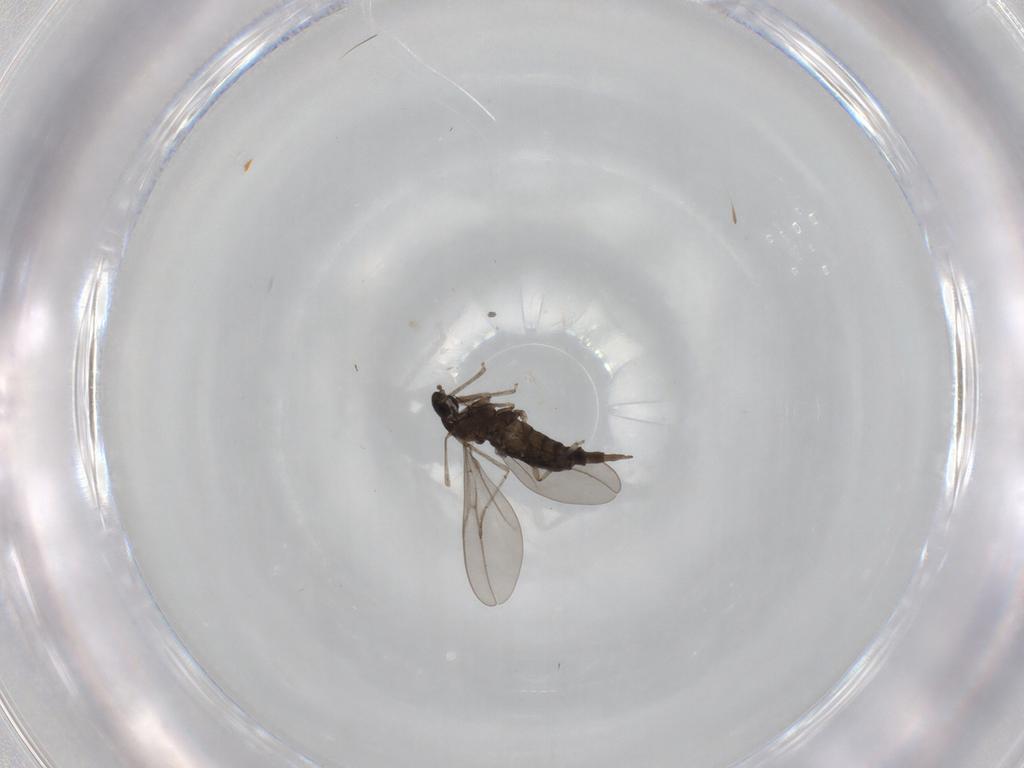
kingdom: Animalia
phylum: Arthropoda
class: Insecta
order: Diptera
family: Cecidomyiidae
